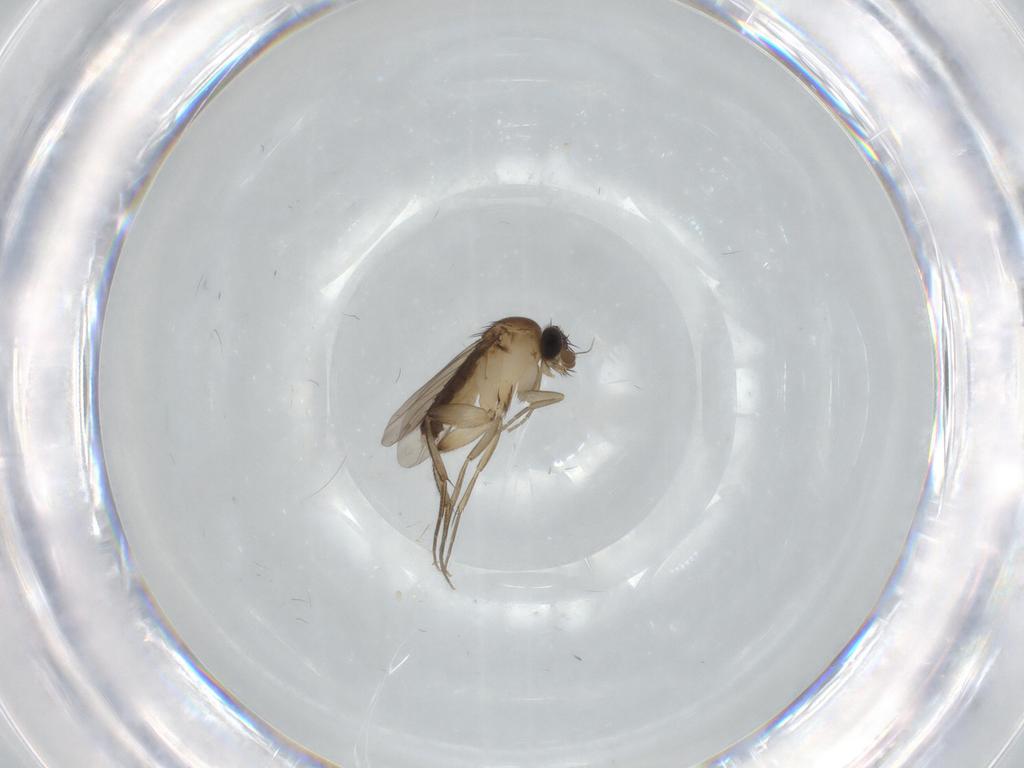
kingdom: Animalia
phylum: Arthropoda
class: Insecta
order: Diptera
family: Phoridae
